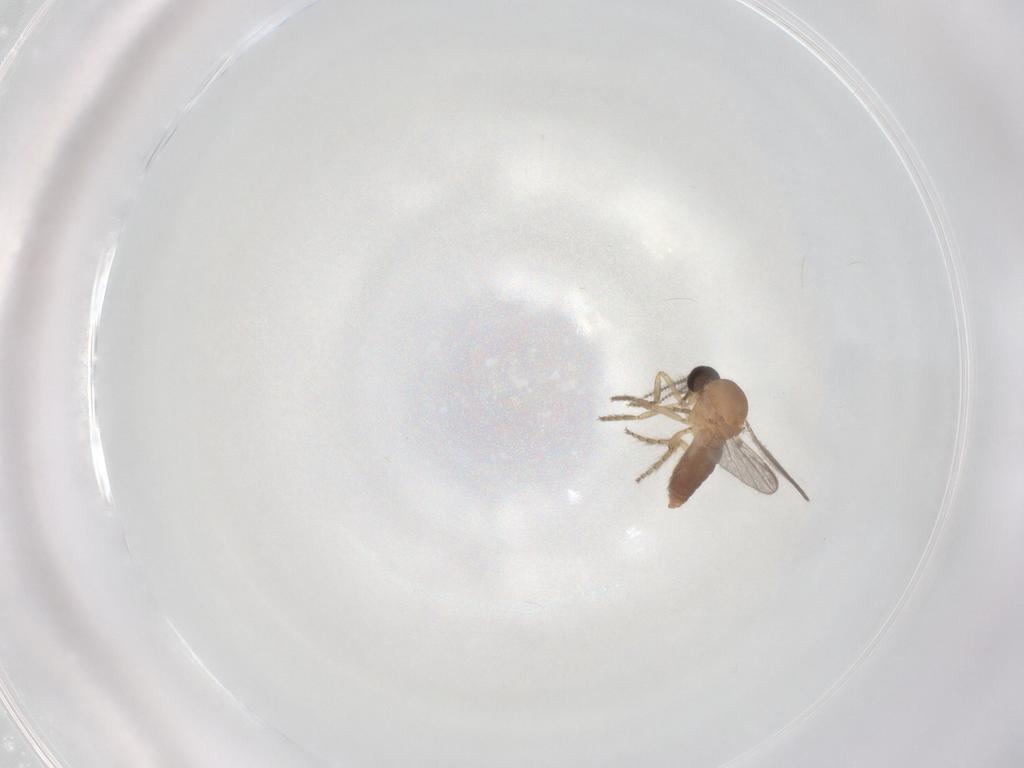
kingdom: Animalia
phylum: Arthropoda
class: Insecta
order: Diptera
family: Ceratopogonidae
